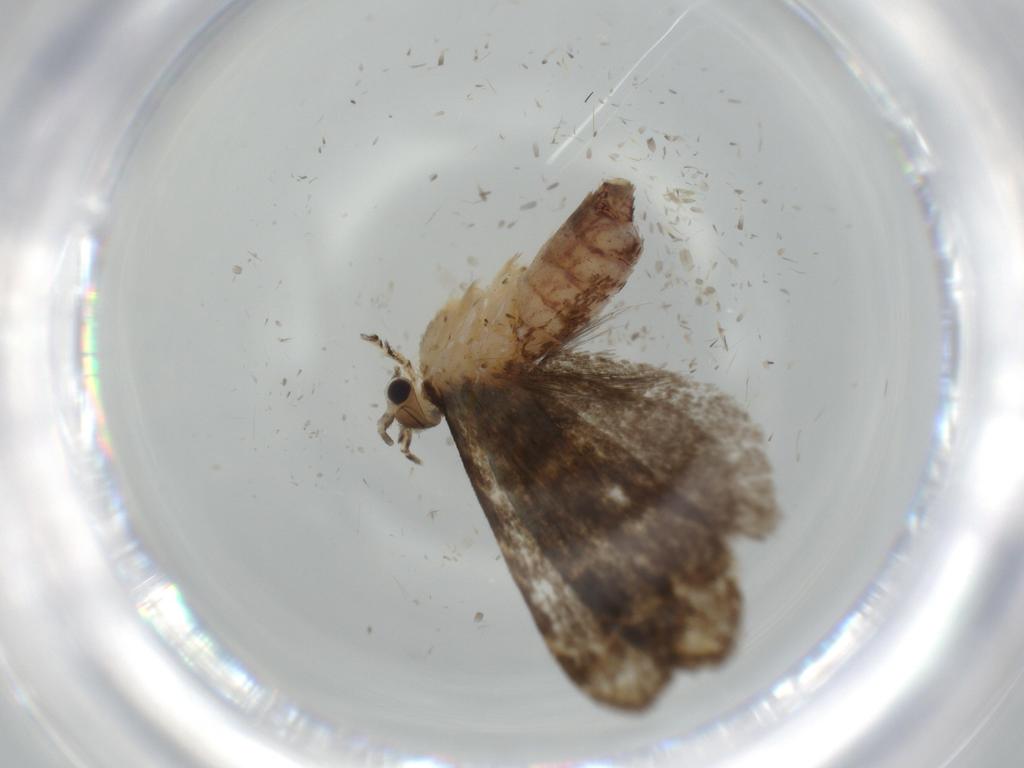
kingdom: Animalia
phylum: Arthropoda
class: Insecta
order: Lepidoptera
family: Tineidae
